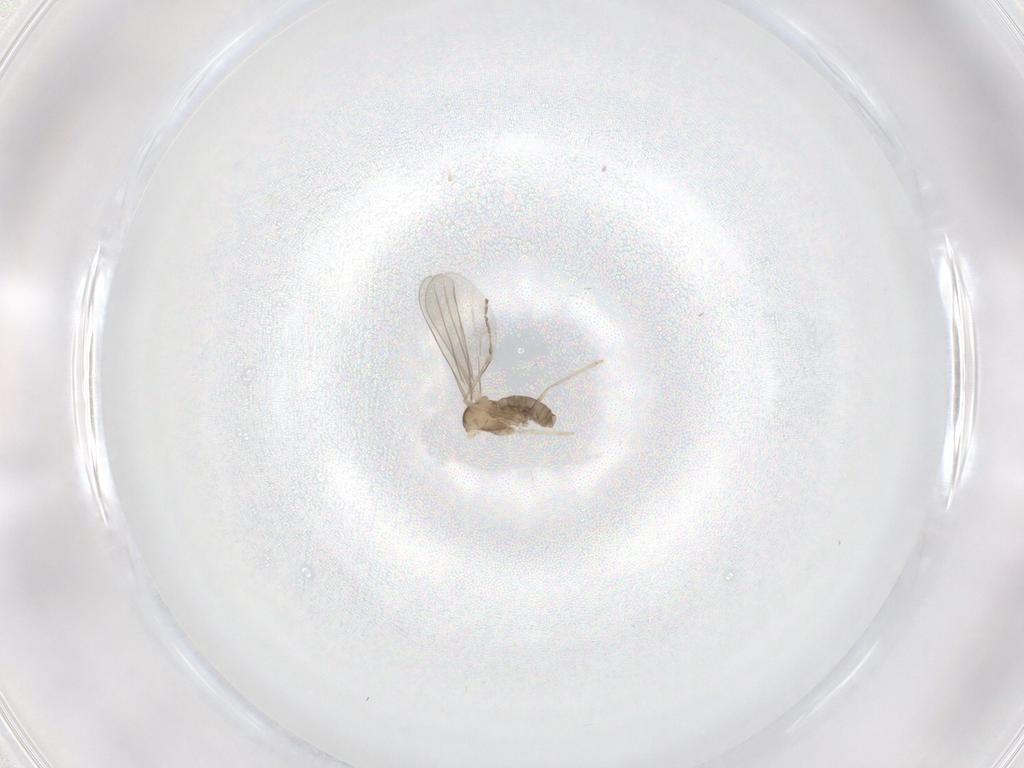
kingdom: Animalia
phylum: Arthropoda
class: Insecta
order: Diptera
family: Cecidomyiidae
